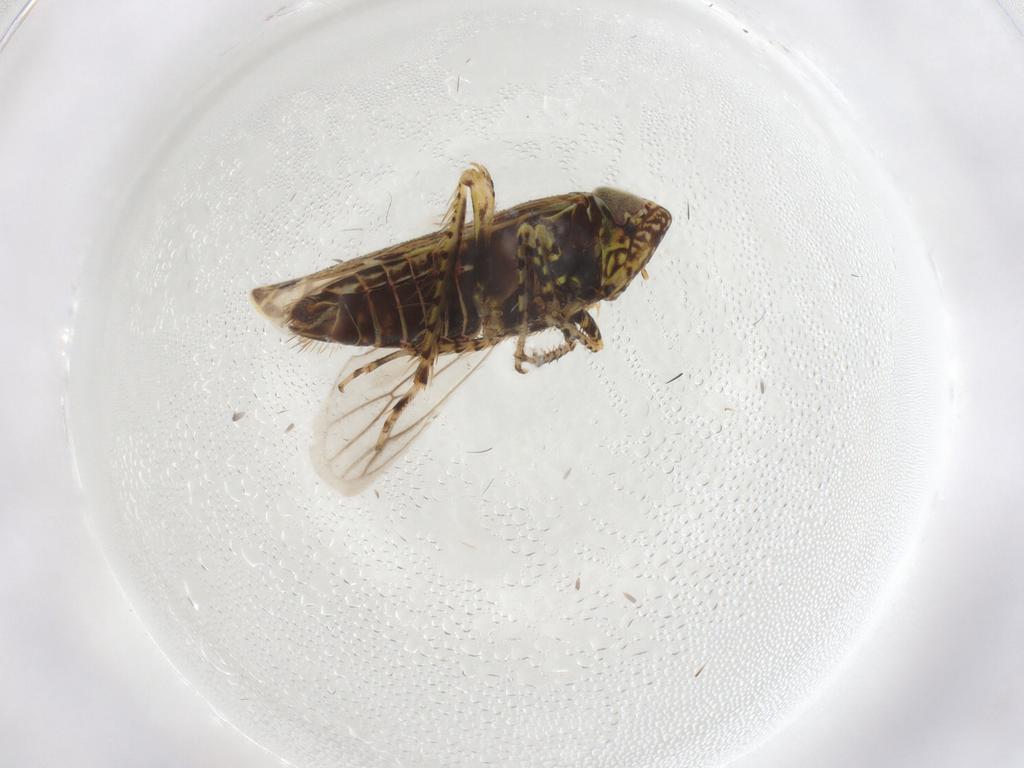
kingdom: Animalia
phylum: Arthropoda
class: Insecta
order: Hemiptera
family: Cicadellidae
